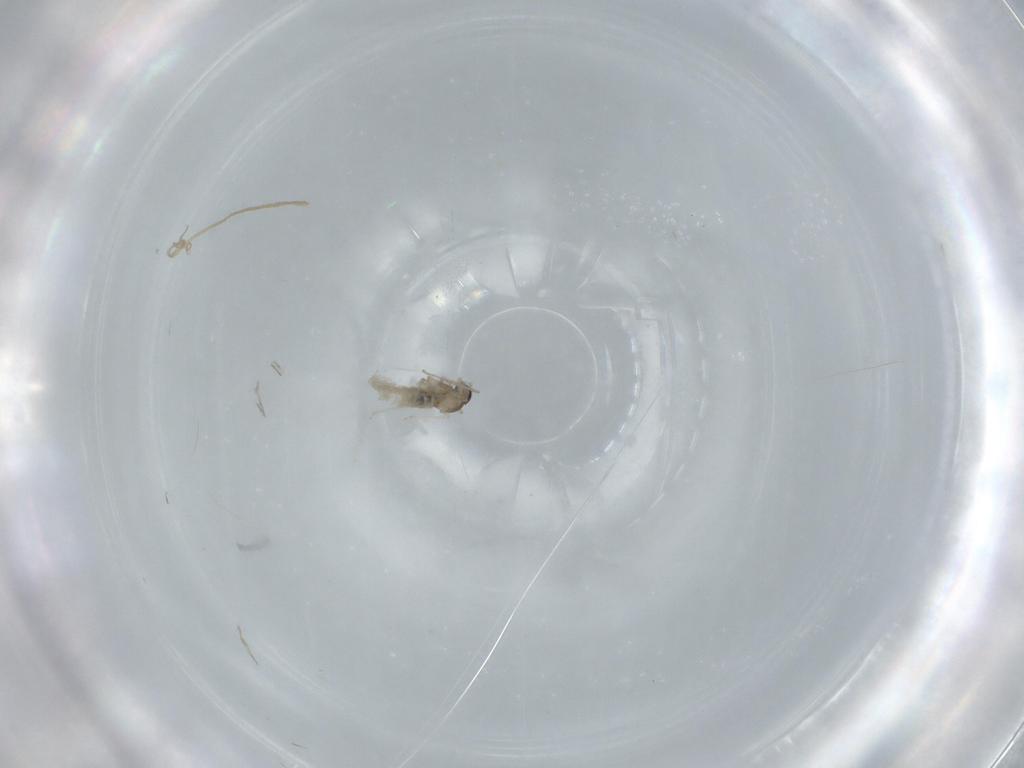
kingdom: Animalia
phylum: Arthropoda
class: Insecta
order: Diptera
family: Cecidomyiidae
